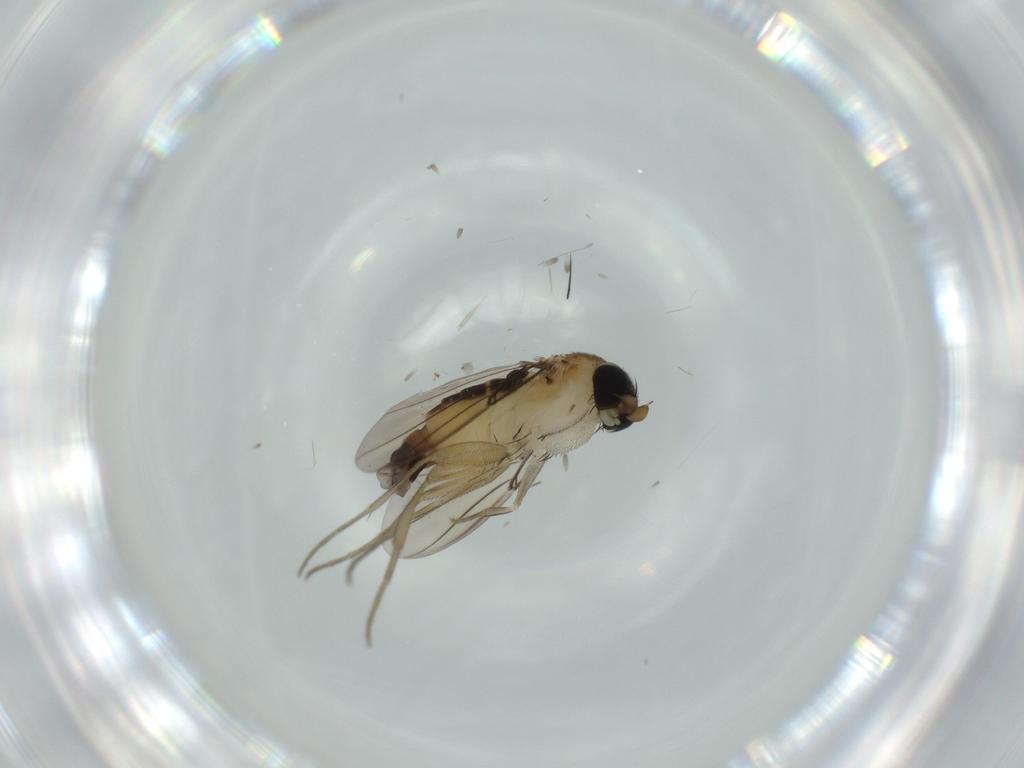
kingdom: Animalia
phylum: Arthropoda
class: Insecta
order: Diptera
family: Phoridae
